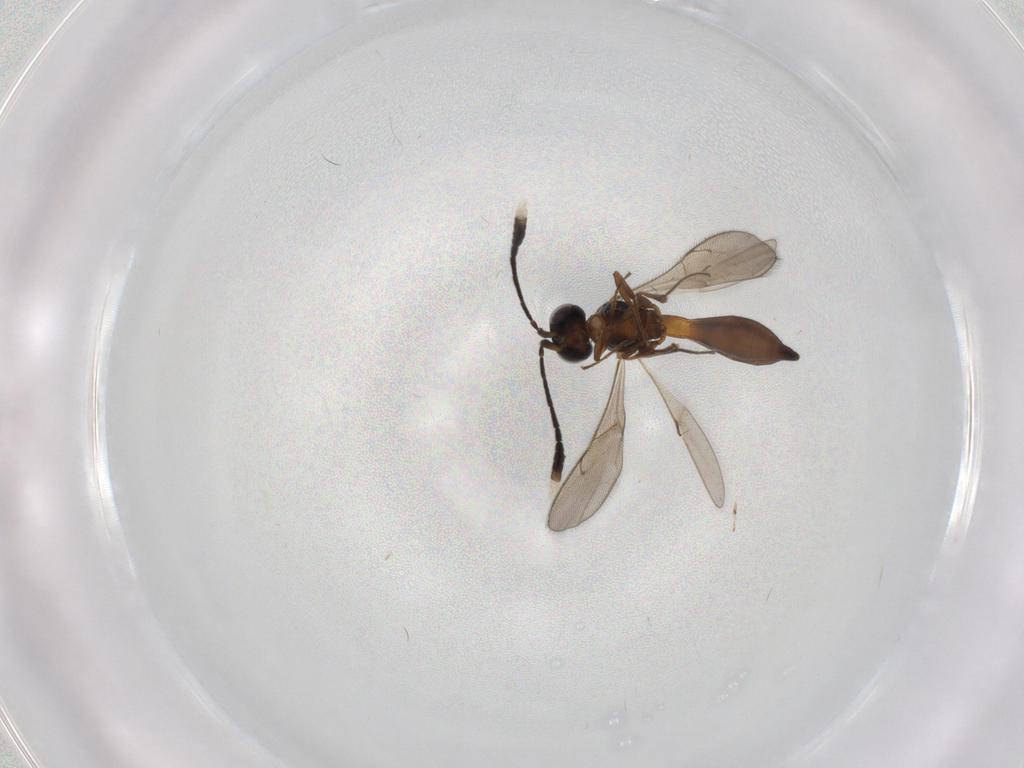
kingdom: Animalia
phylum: Arthropoda
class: Insecta
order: Hymenoptera
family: Scelionidae
